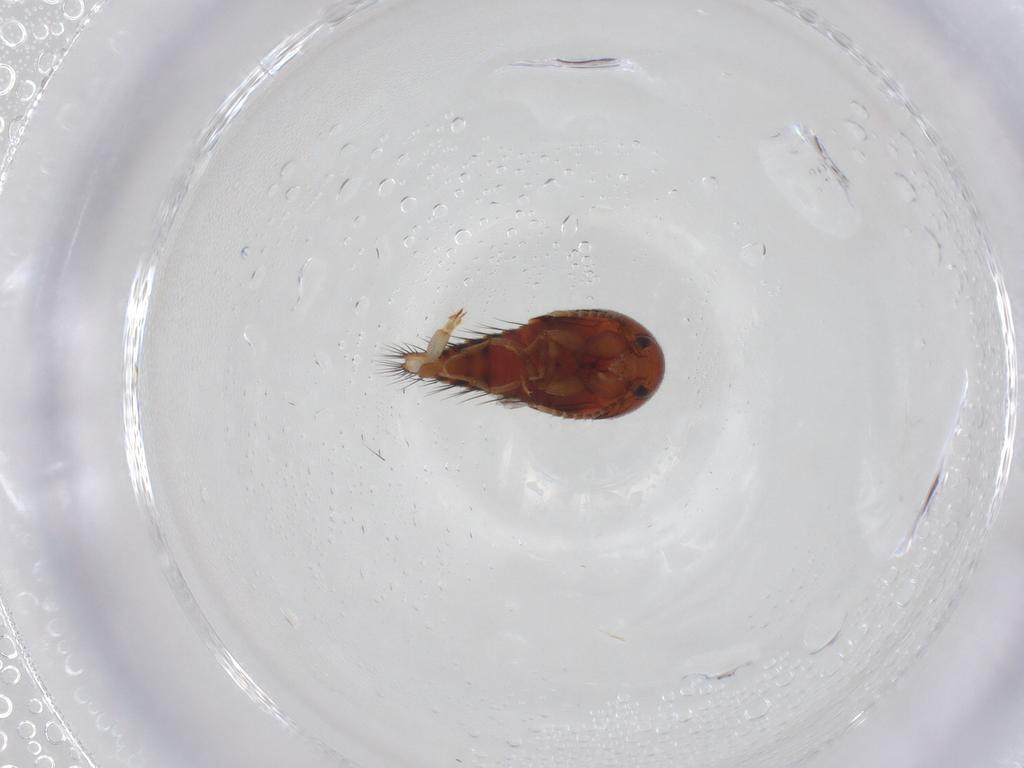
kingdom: Animalia
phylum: Arthropoda
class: Insecta
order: Coleoptera
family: Staphylinidae
